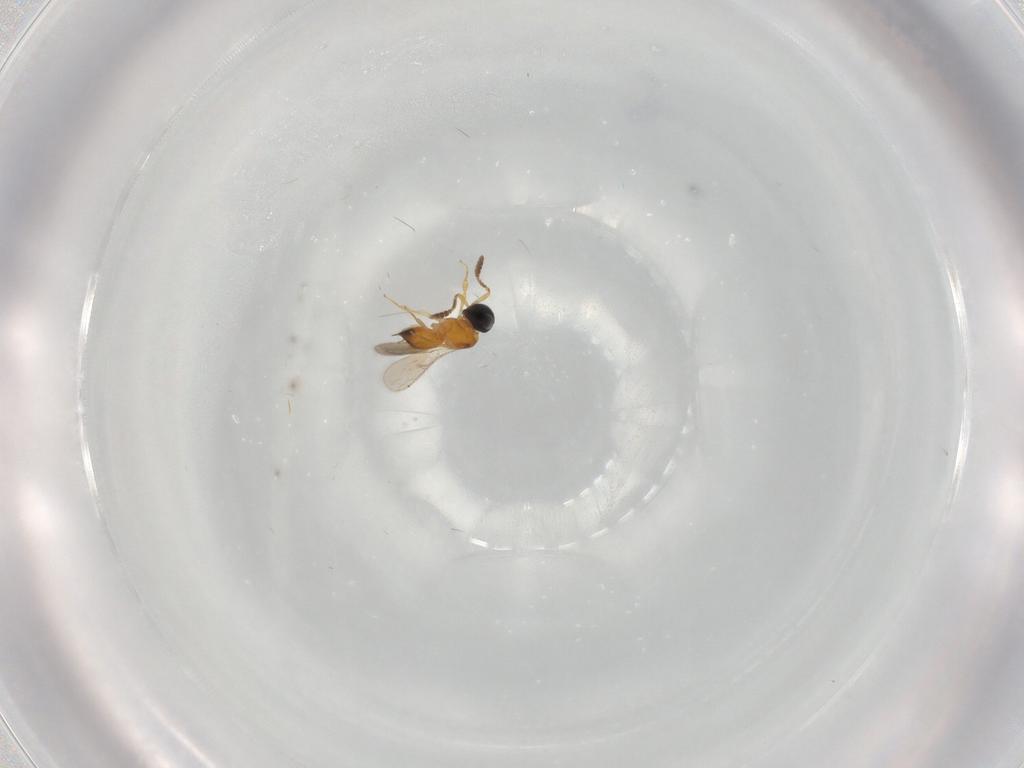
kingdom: Animalia
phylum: Arthropoda
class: Insecta
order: Hymenoptera
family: Scelionidae
